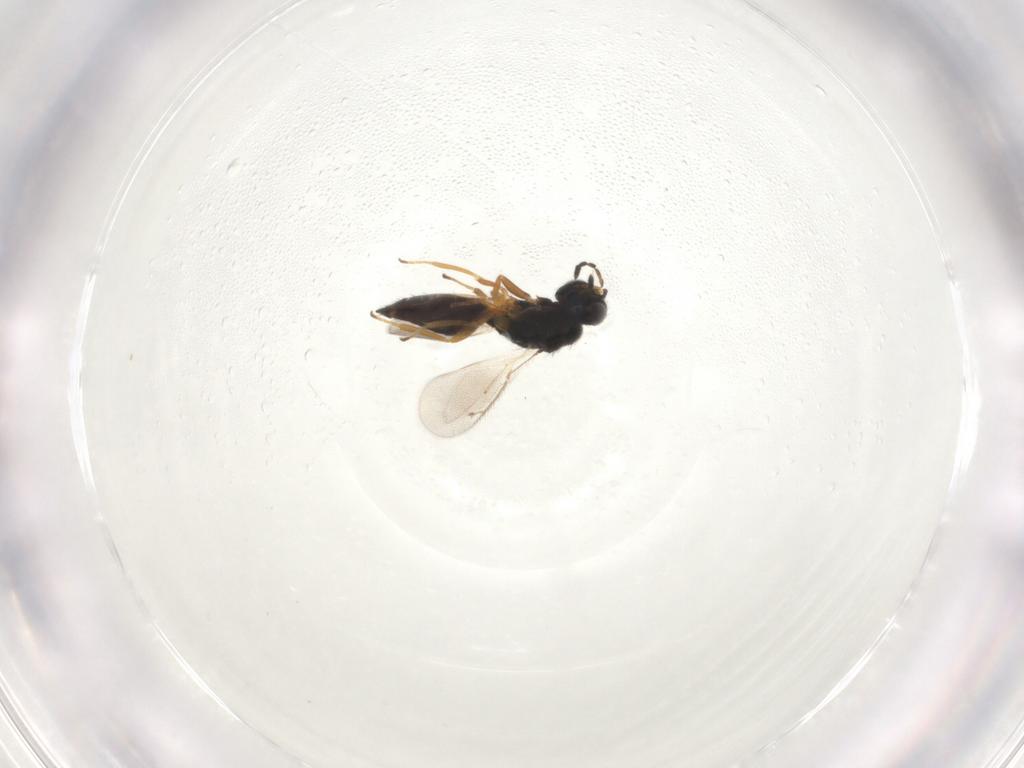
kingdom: Animalia
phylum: Arthropoda
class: Insecta
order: Hymenoptera
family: Eulophidae
